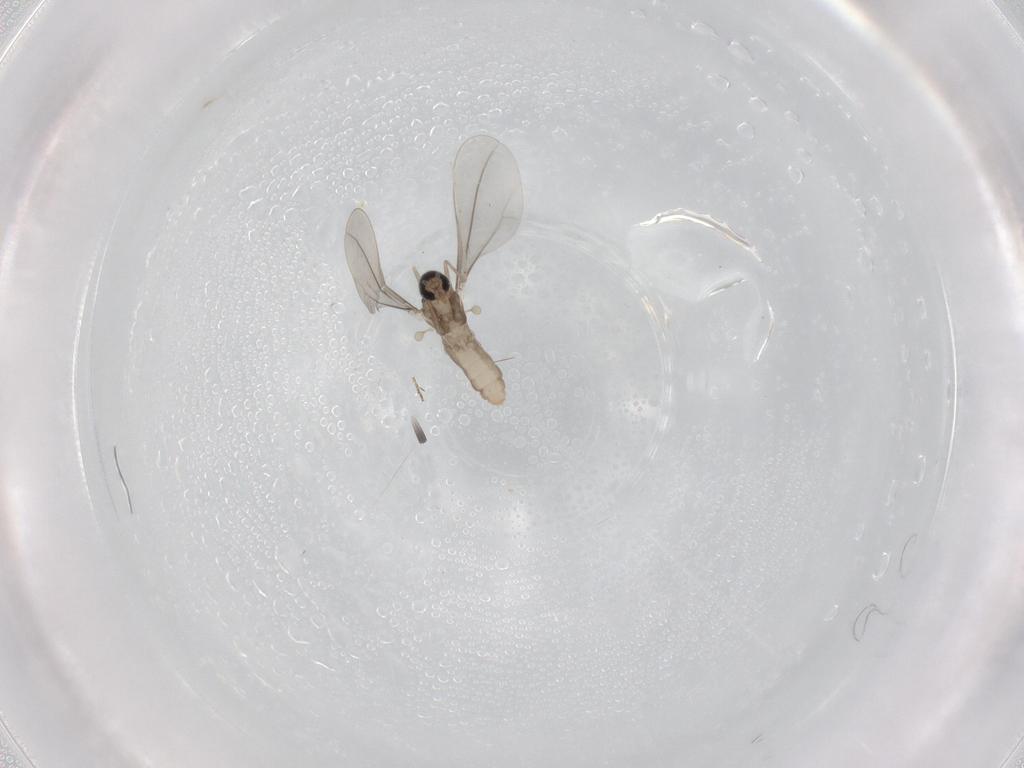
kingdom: Animalia
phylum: Arthropoda
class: Insecta
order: Diptera
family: Cecidomyiidae
